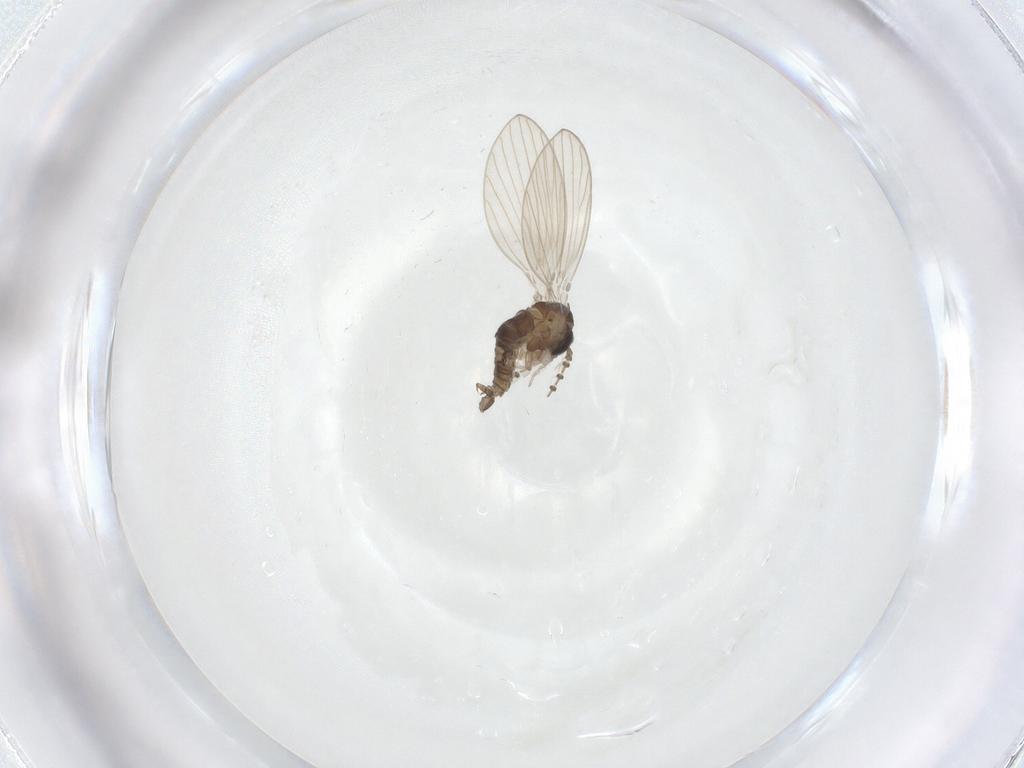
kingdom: Animalia
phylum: Arthropoda
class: Insecta
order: Diptera
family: Psychodidae
